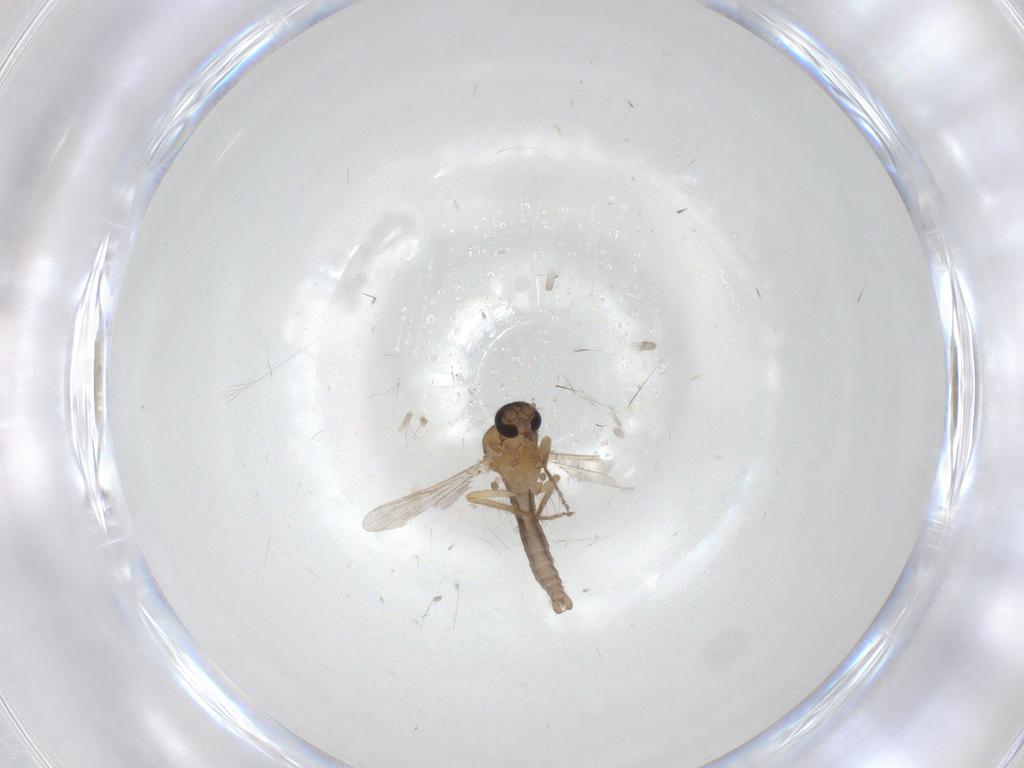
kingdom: Animalia
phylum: Arthropoda
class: Insecta
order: Diptera
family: Ceratopogonidae
